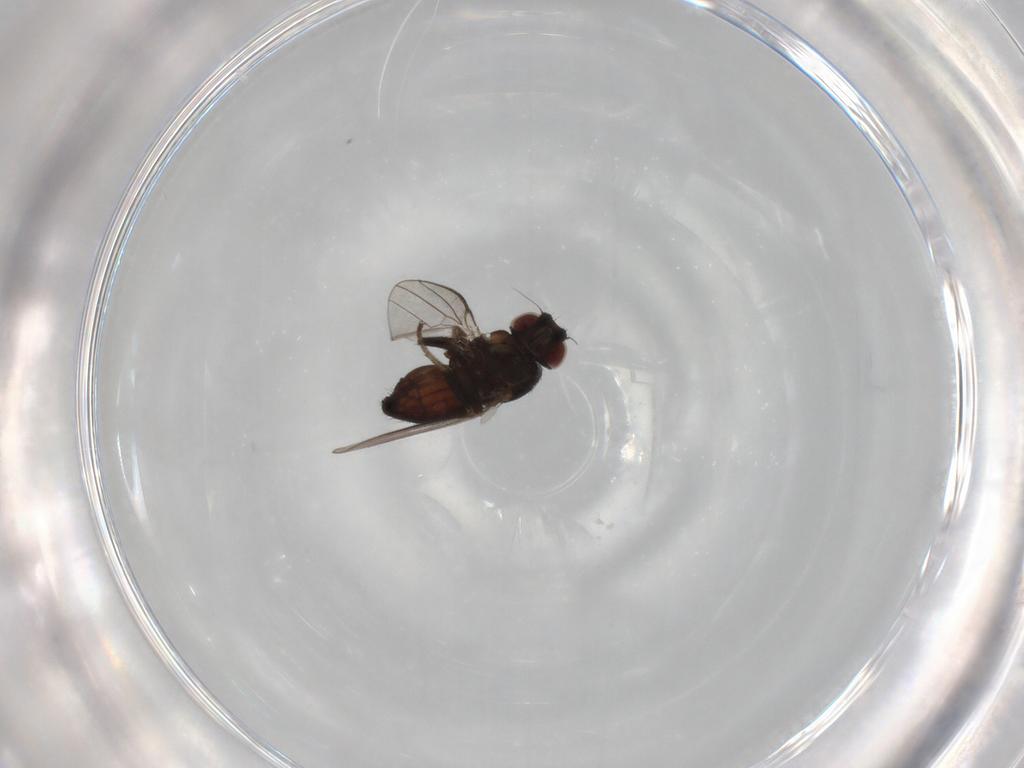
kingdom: Animalia
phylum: Arthropoda
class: Insecta
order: Diptera
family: Milichiidae
